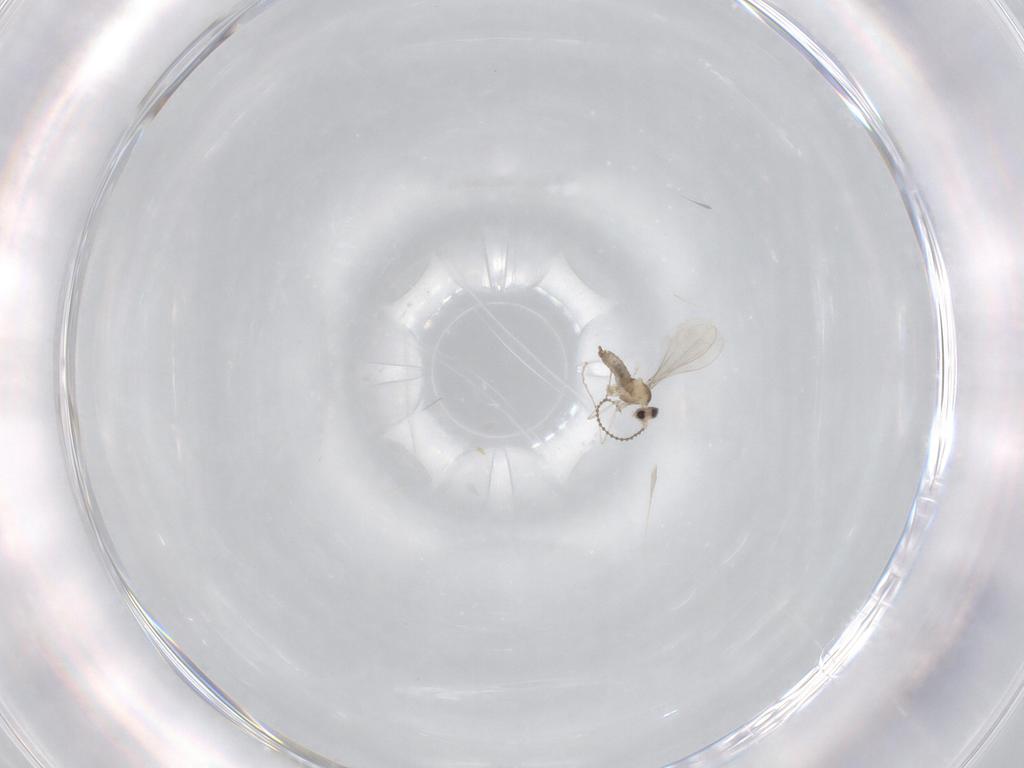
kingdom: Animalia
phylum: Arthropoda
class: Insecta
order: Diptera
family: Cecidomyiidae
